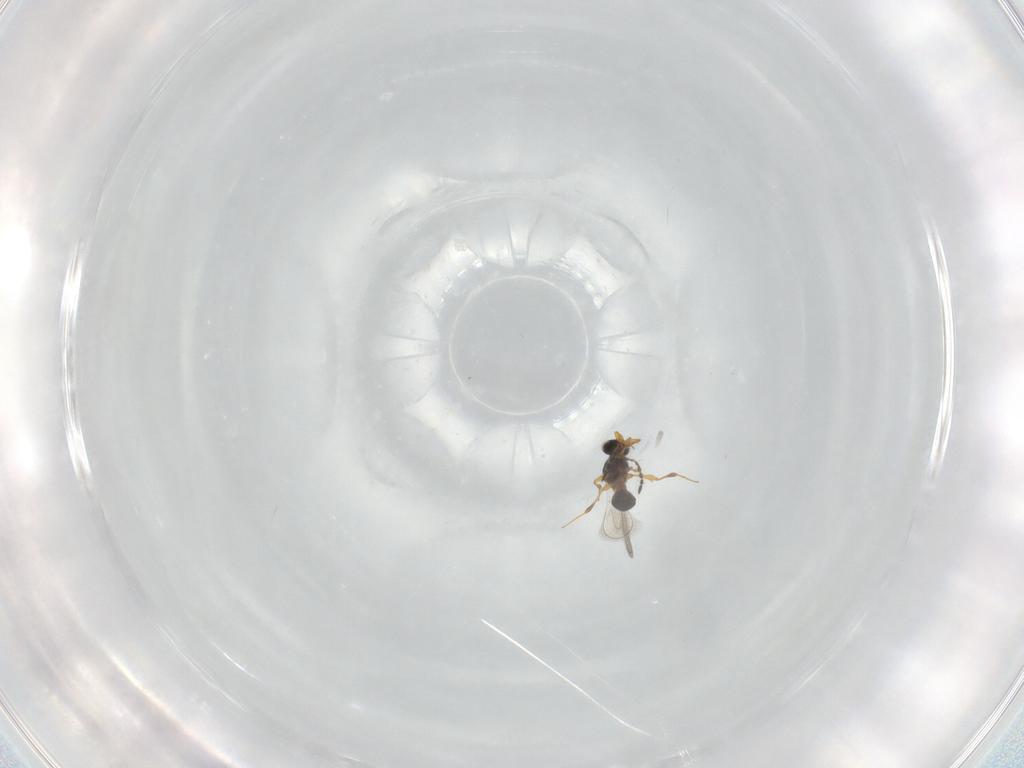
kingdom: Animalia
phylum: Arthropoda
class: Insecta
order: Hymenoptera
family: Platygastridae
